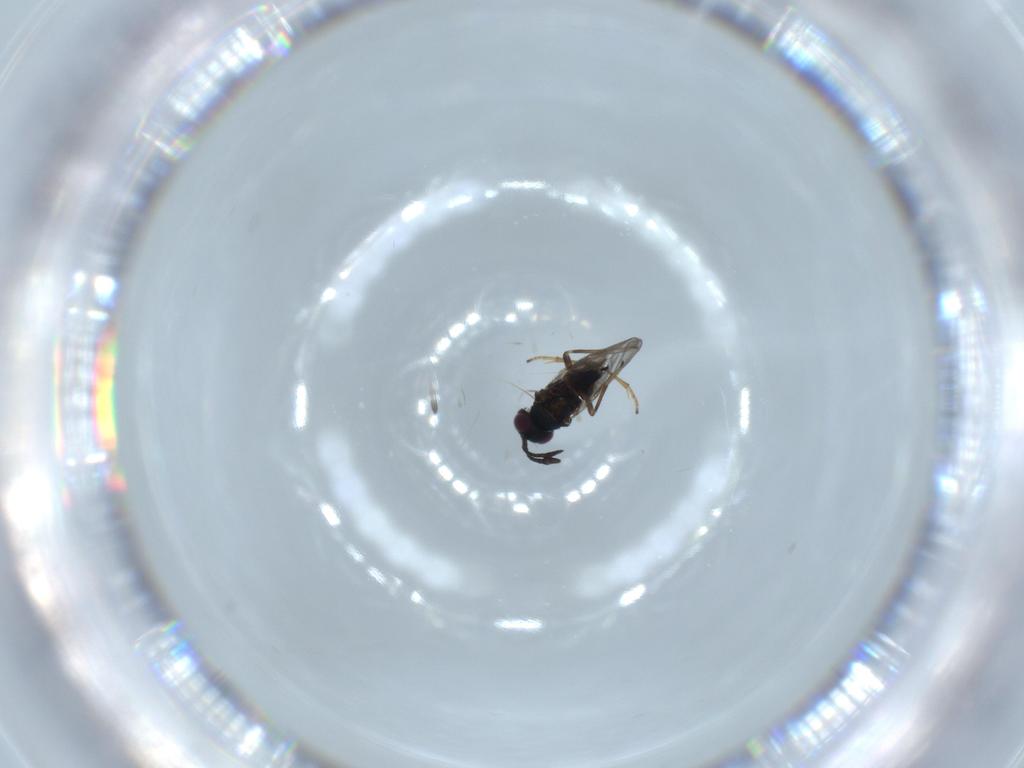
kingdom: Animalia
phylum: Arthropoda
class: Insecta
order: Hymenoptera
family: Encyrtidae
